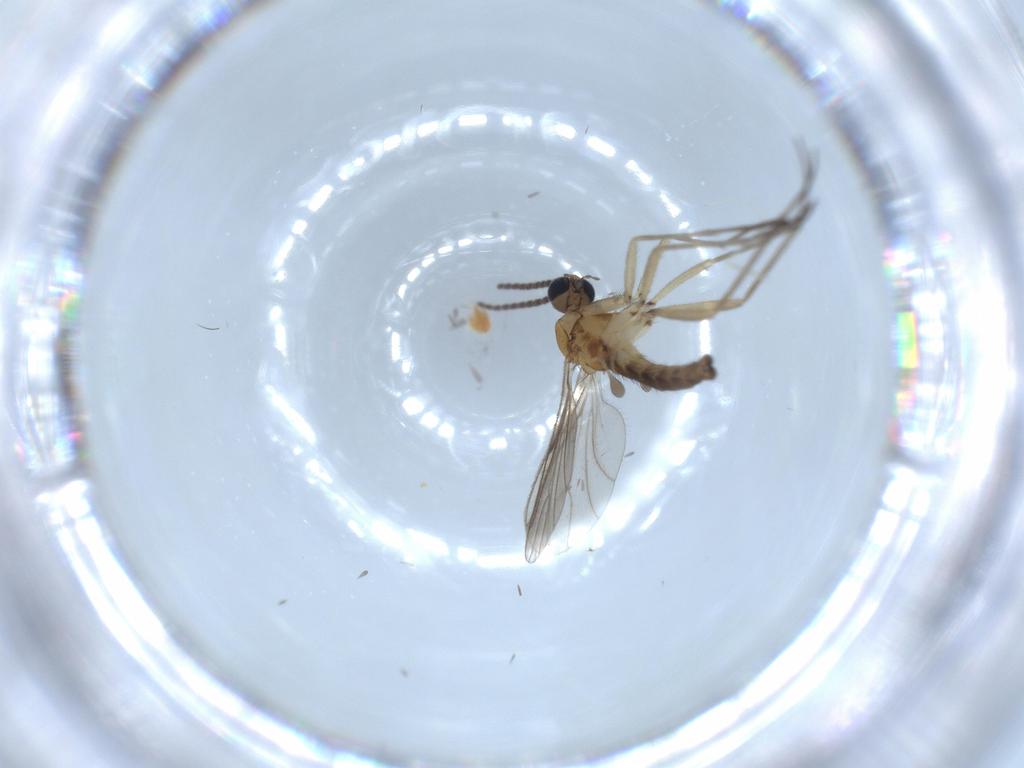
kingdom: Animalia
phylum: Arthropoda
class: Insecta
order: Diptera
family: Sciaridae
